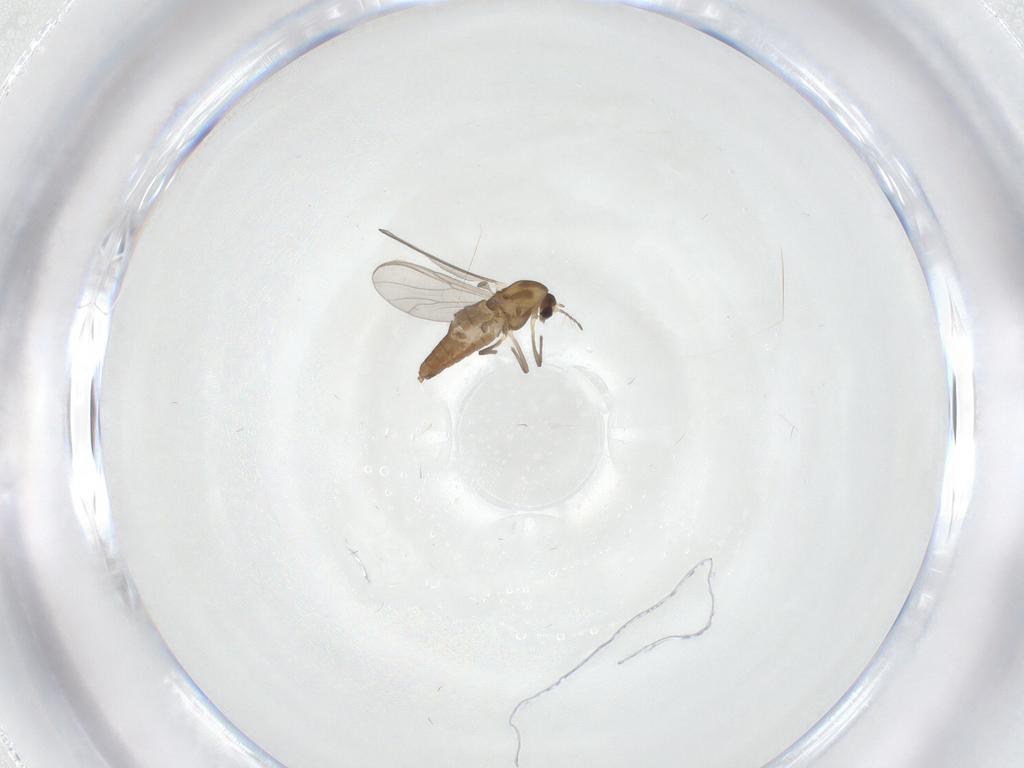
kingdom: Animalia
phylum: Arthropoda
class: Insecta
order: Diptera
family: Chironomidae
